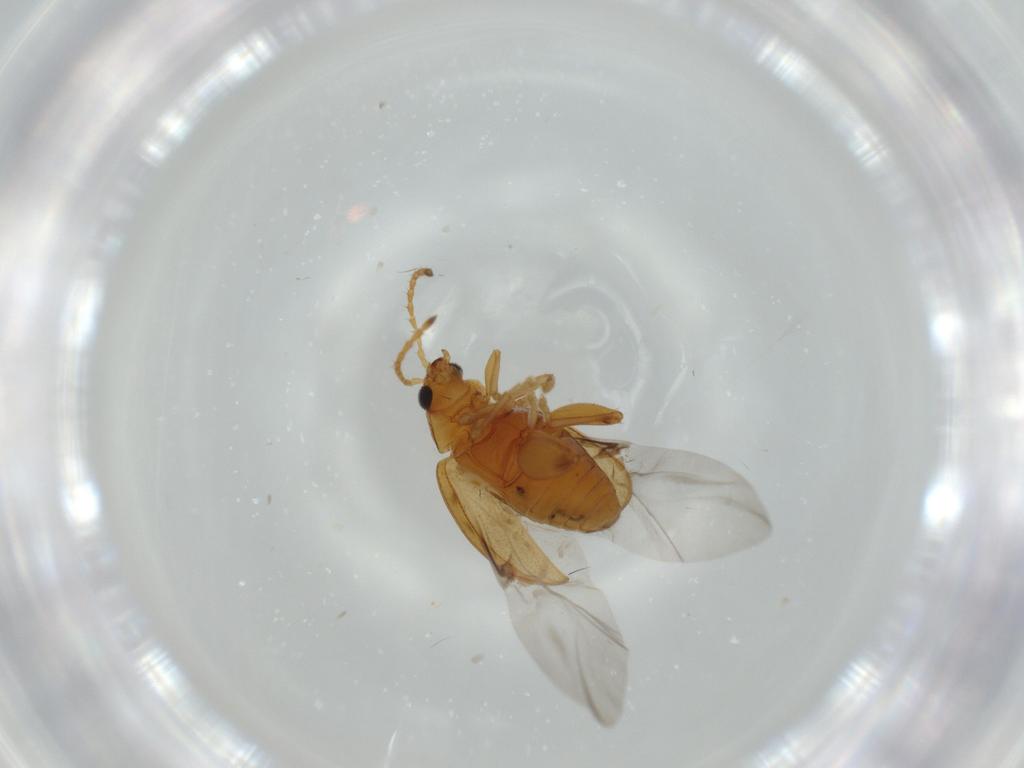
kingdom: Animalia
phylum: Arthropoda
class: Insecta
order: Coleoptera
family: Chrysomelidae
